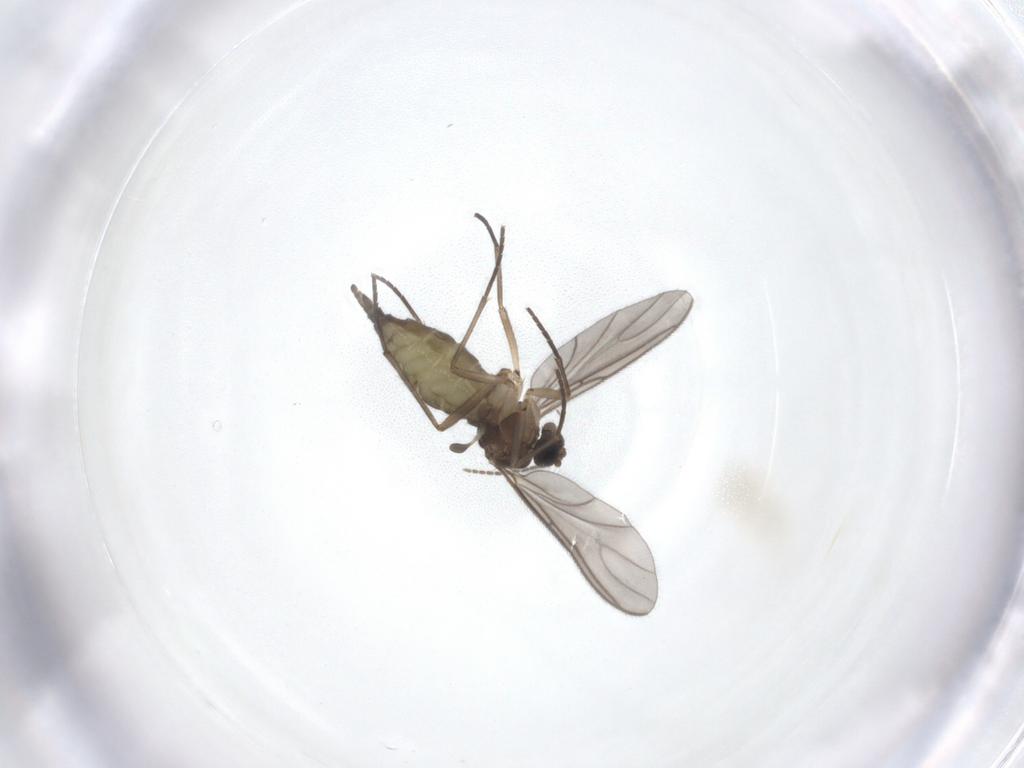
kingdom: Animalia
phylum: Arthropoda
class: Insecta
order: Diptera
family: Sciaridae
